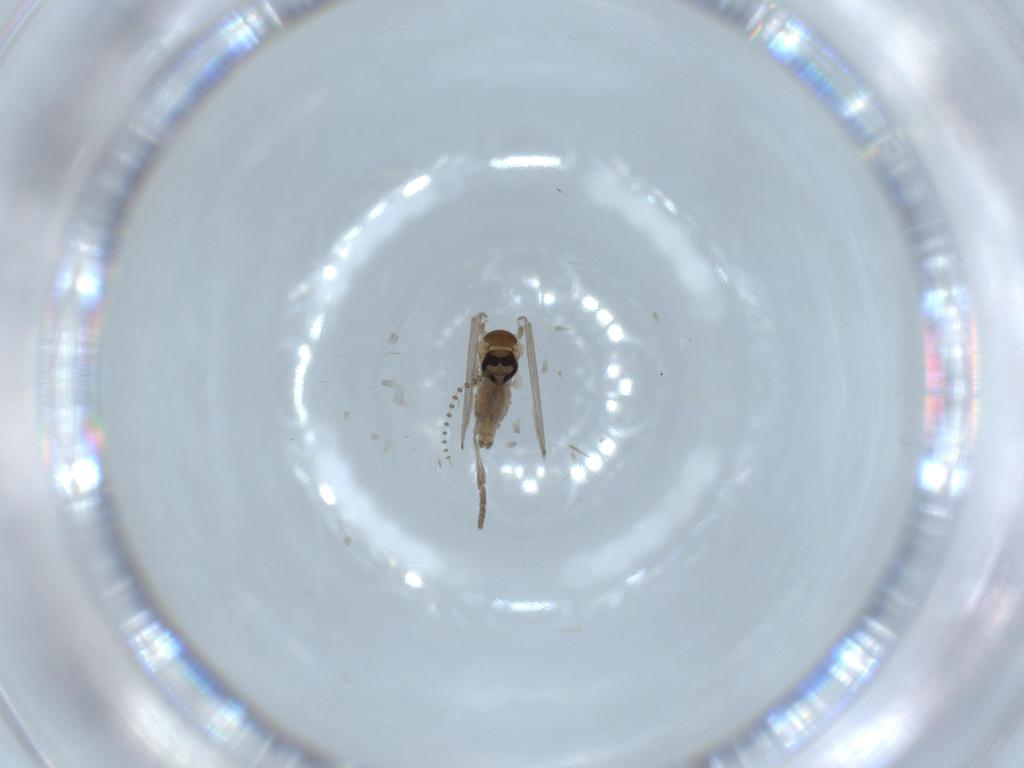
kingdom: Animalia
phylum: Arthropoda
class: Insecta
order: Diptera
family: Psychodidae
